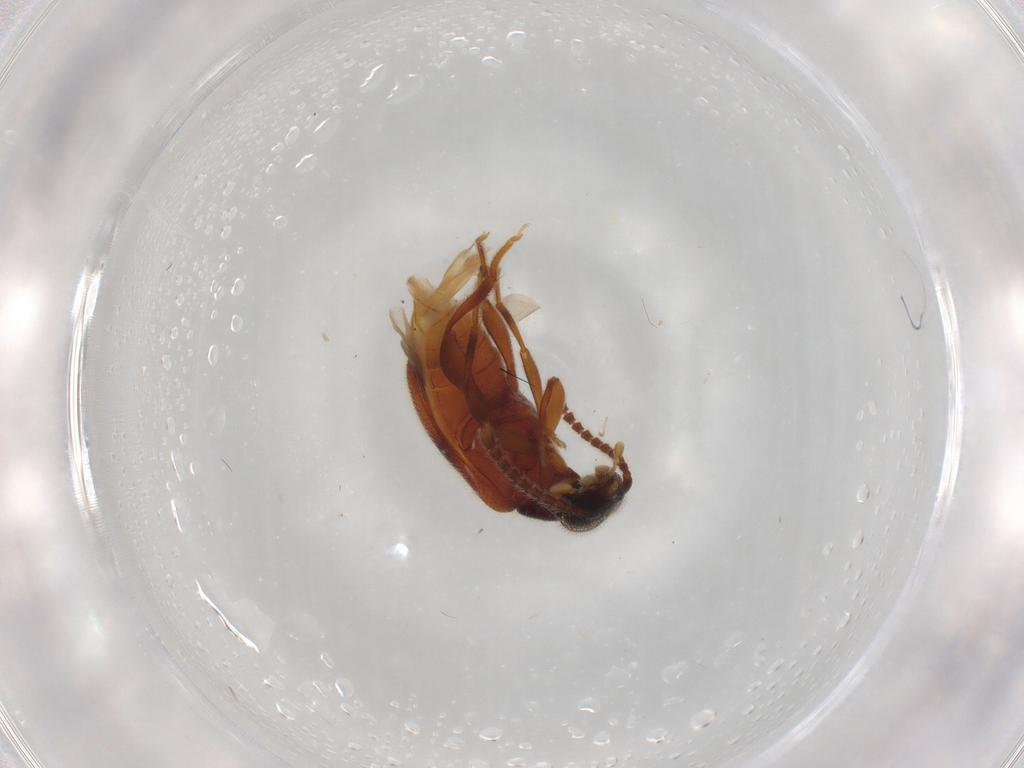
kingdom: Animalia
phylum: Arthropoda
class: Insecta
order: Coleoptera
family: Aderidae
